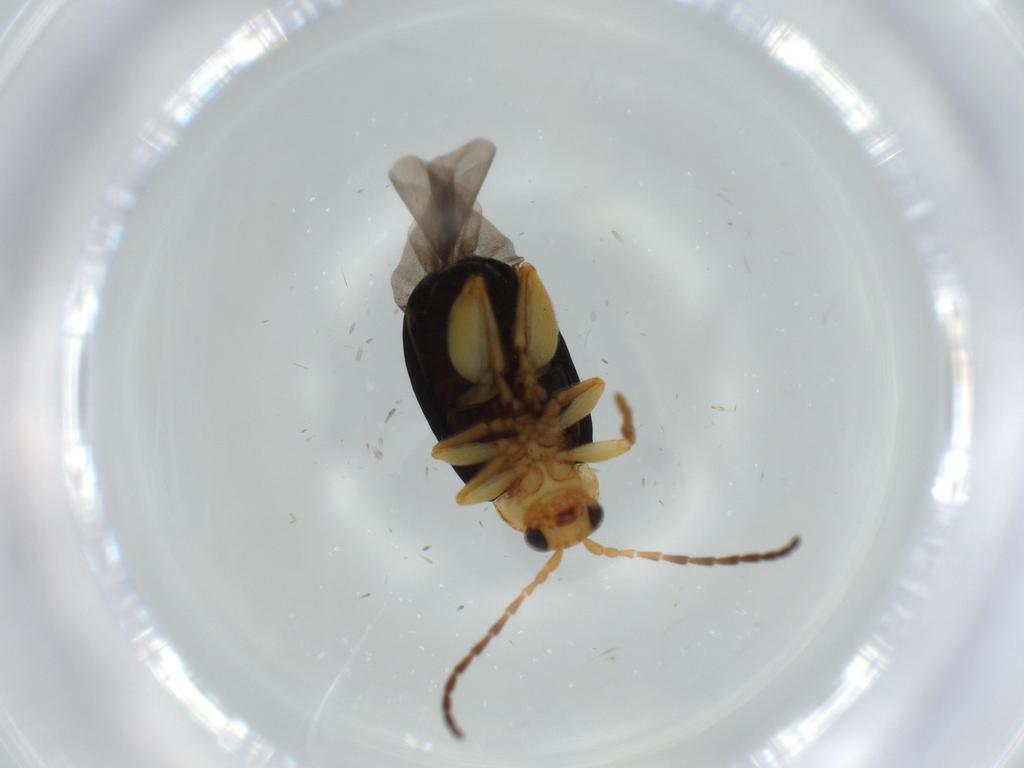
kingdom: Animalia
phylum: Arthropoda
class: Insecta
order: Coleoptera
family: Chrysomelidae
